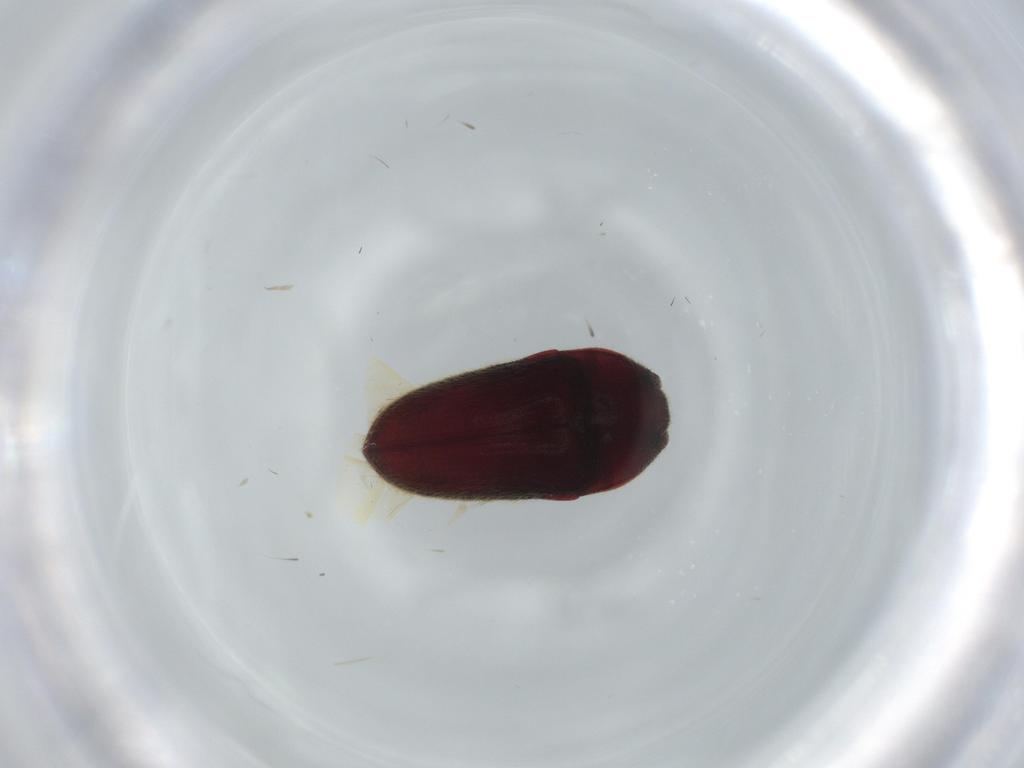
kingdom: Animalia
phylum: Arthropoda
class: Insecta
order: Coleoptera
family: Throscidae
